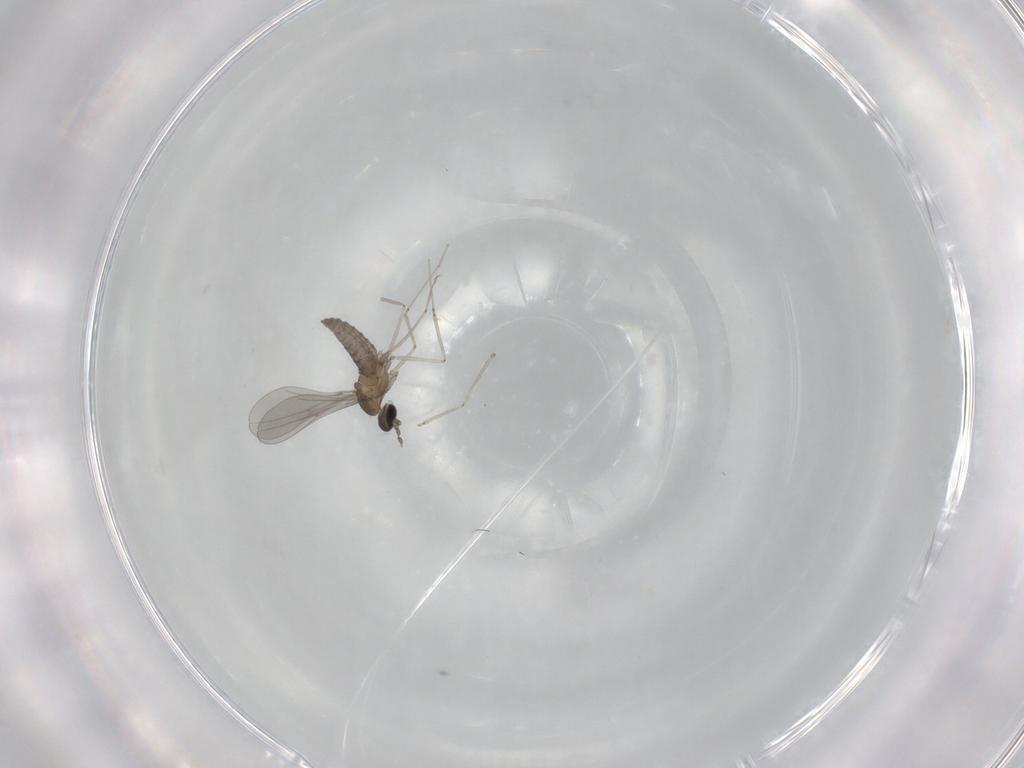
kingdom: Animalia
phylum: Arthropoda
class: Insecta
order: Diptera
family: Cecidomyiidae
